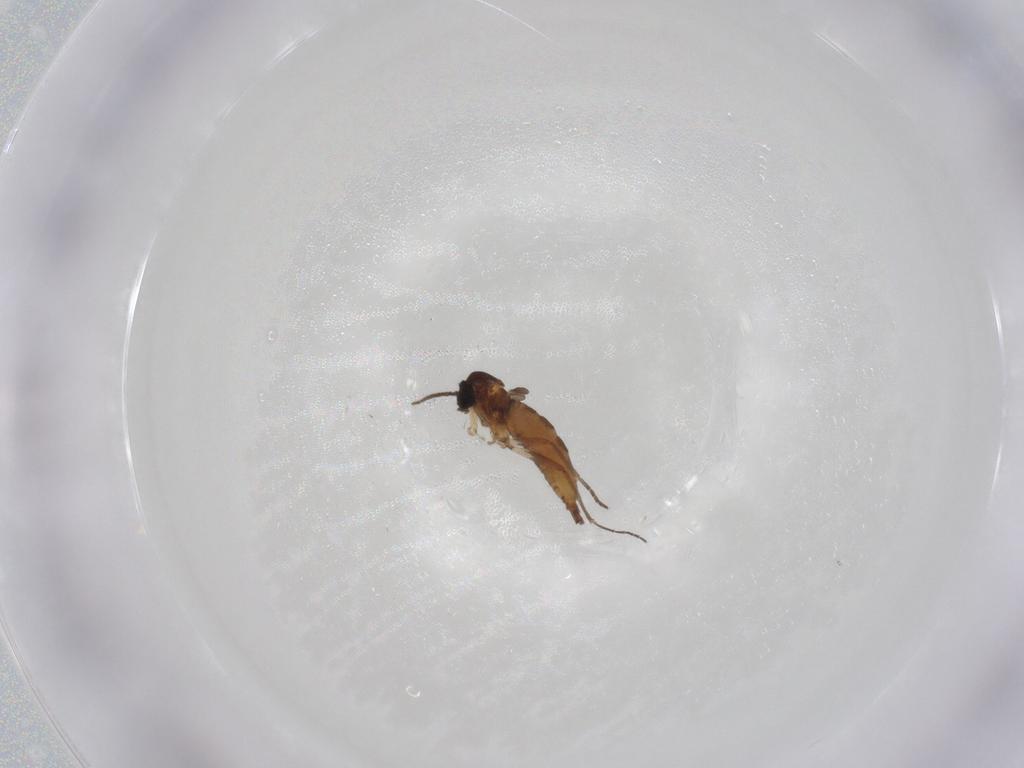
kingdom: Animalia
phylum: Arthropoda
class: Insecta
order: Diptera
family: Sciaridae
